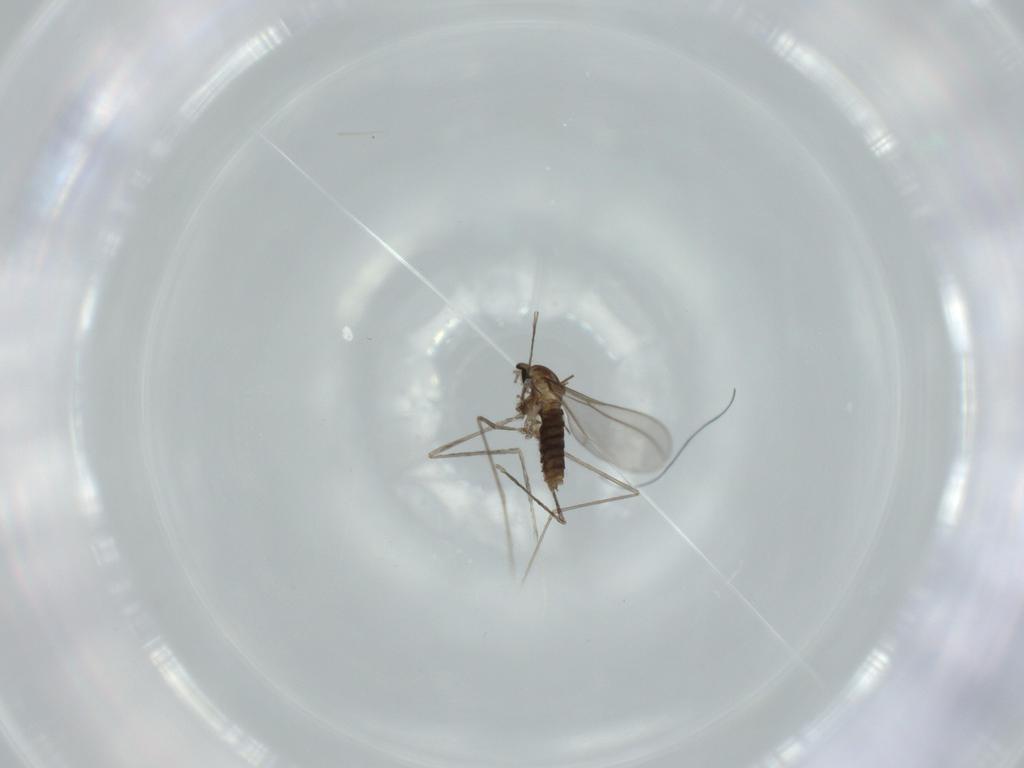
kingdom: Animalia
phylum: Arthropoda
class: Insecta
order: Diptera
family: Cecidomyiidae
